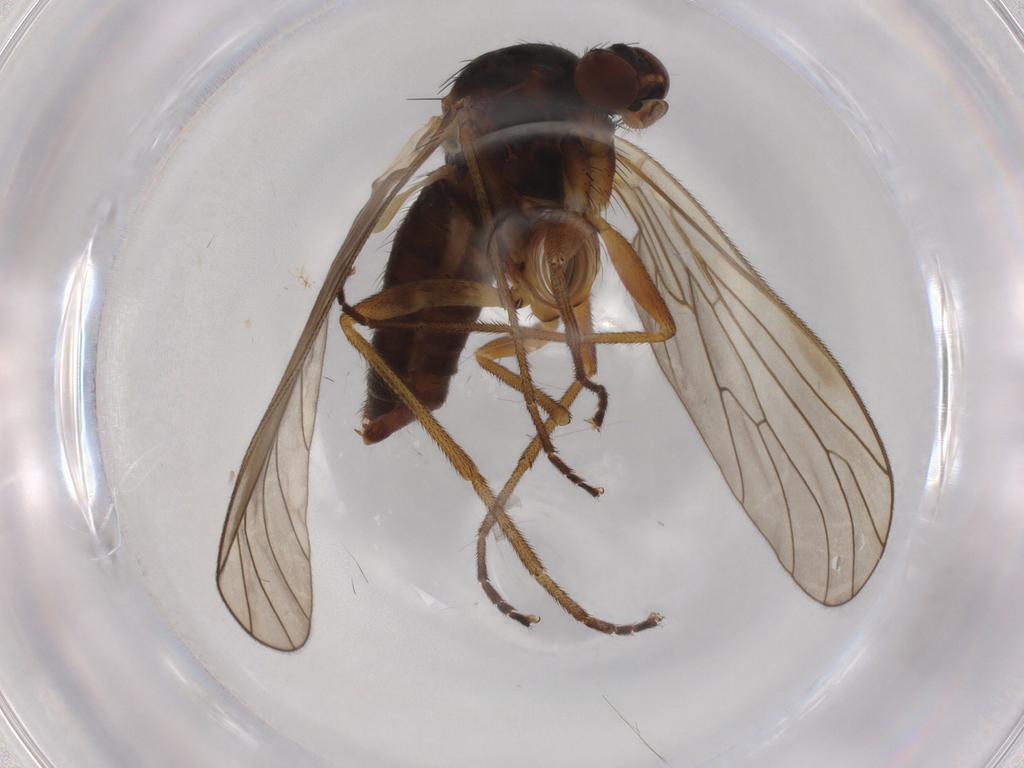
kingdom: Animalia
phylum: Arthropoda
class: Insecta
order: Diptera
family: Brachystomatidae
